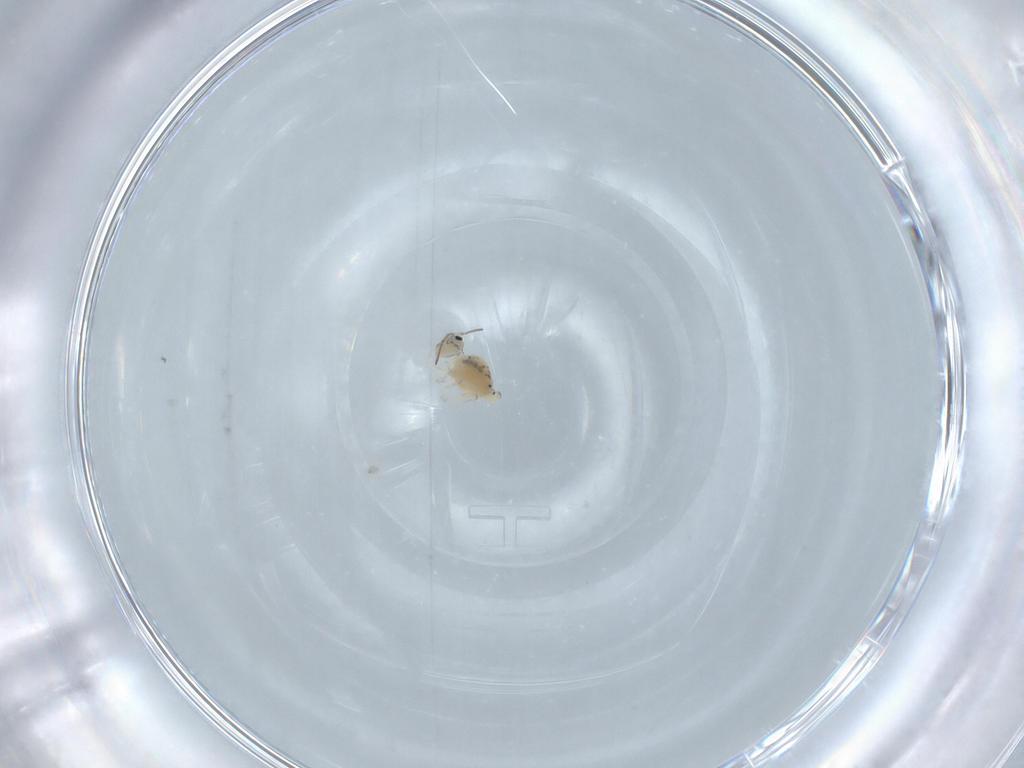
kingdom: Animalia
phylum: Arthropoda
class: Collembola
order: Symphypleona
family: Bourletiellidae
